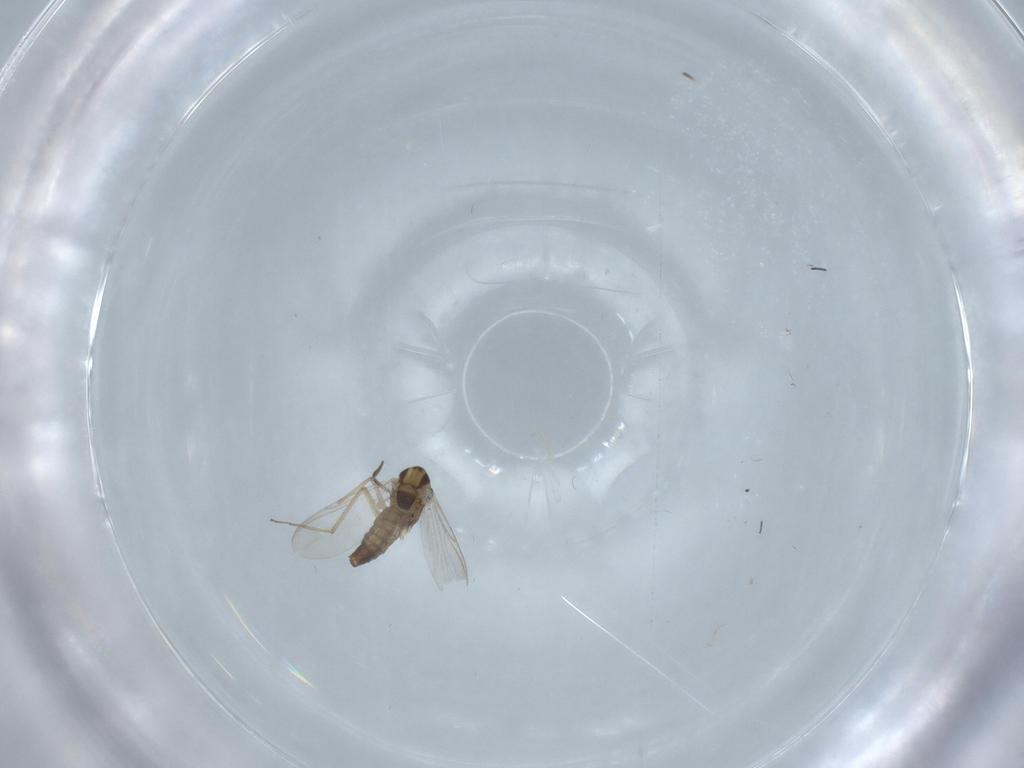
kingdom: Animalia
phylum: Arthropoda
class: Insecta
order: Diptera
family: Chironomidae
